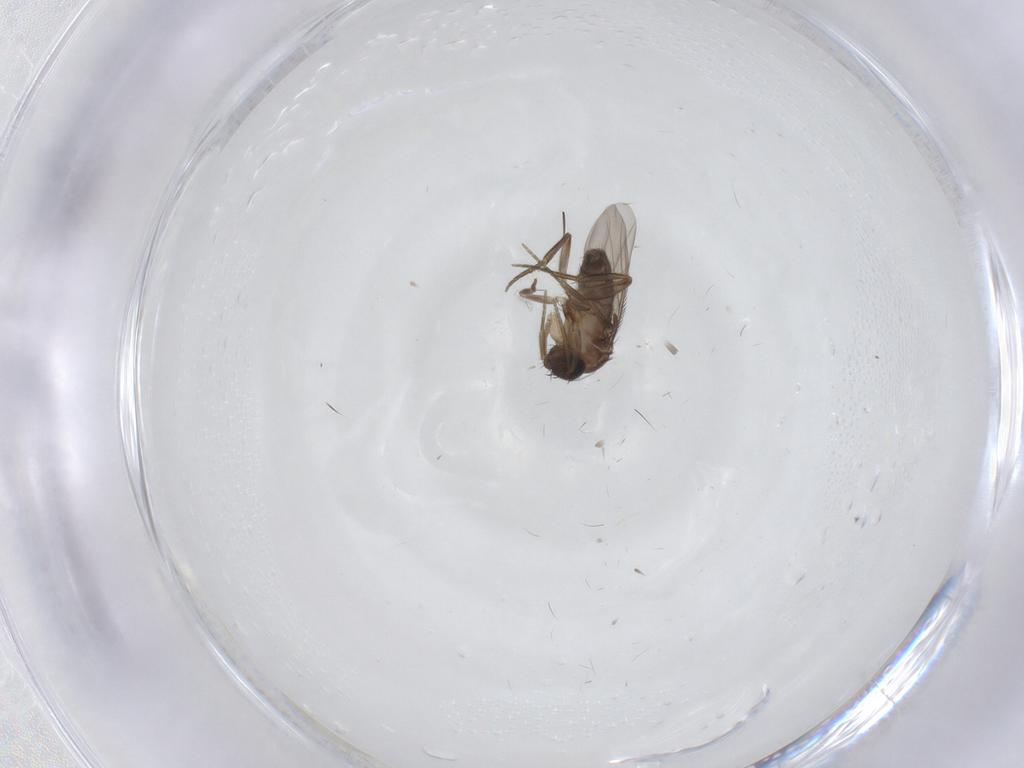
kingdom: Animalia
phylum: Arthropoda
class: Insecta
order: Diptera
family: Phoridae
